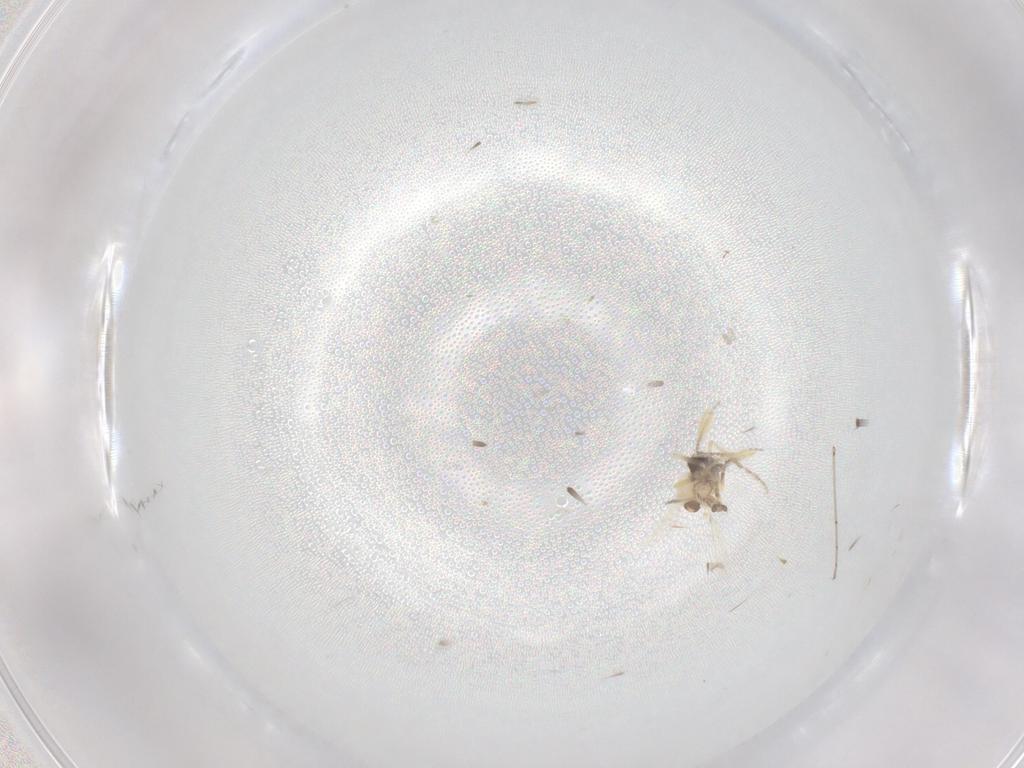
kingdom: Animalia
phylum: Arthropoda
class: Insecta
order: Diptera
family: Ceratopogonidae
